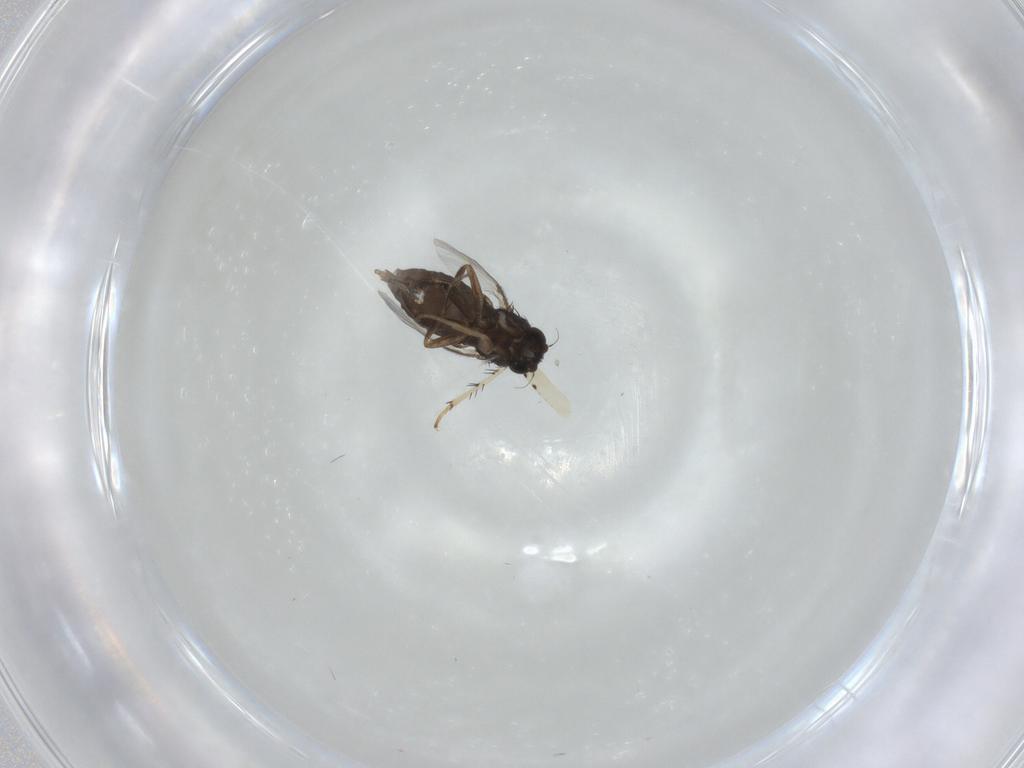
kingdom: Animalia
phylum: Arthropoda
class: Insecta
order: Diptera
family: Phoridae
